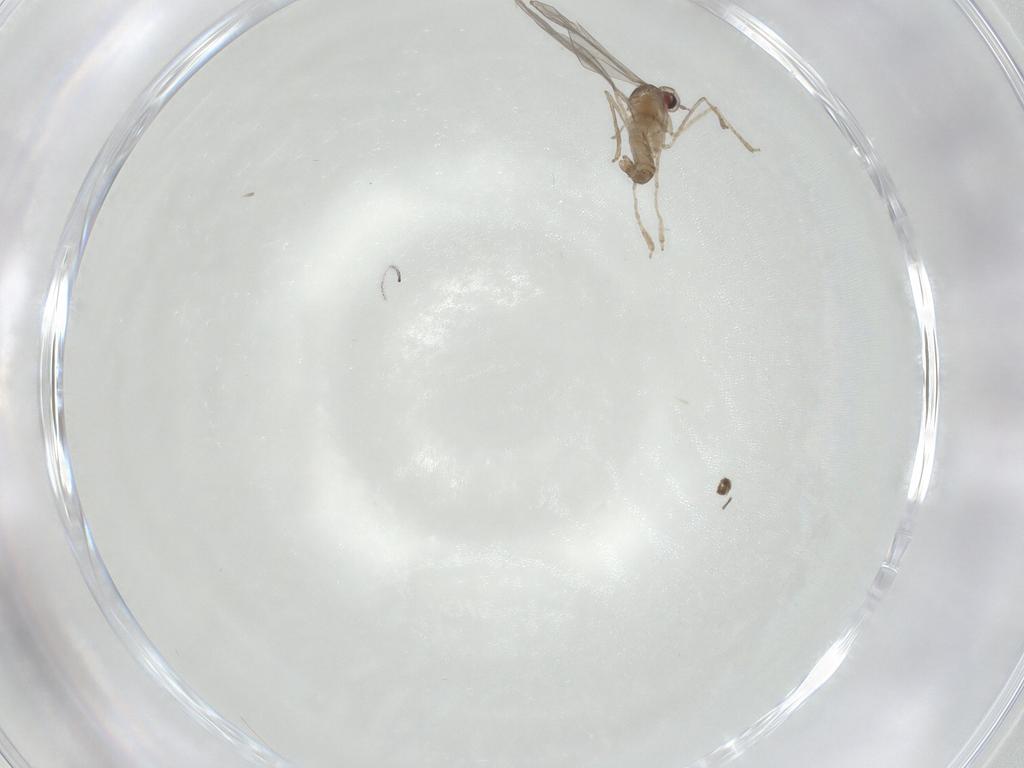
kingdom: Animalia
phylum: Arthropoda
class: Insecta
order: Diptera
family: Cecidomyiidae
